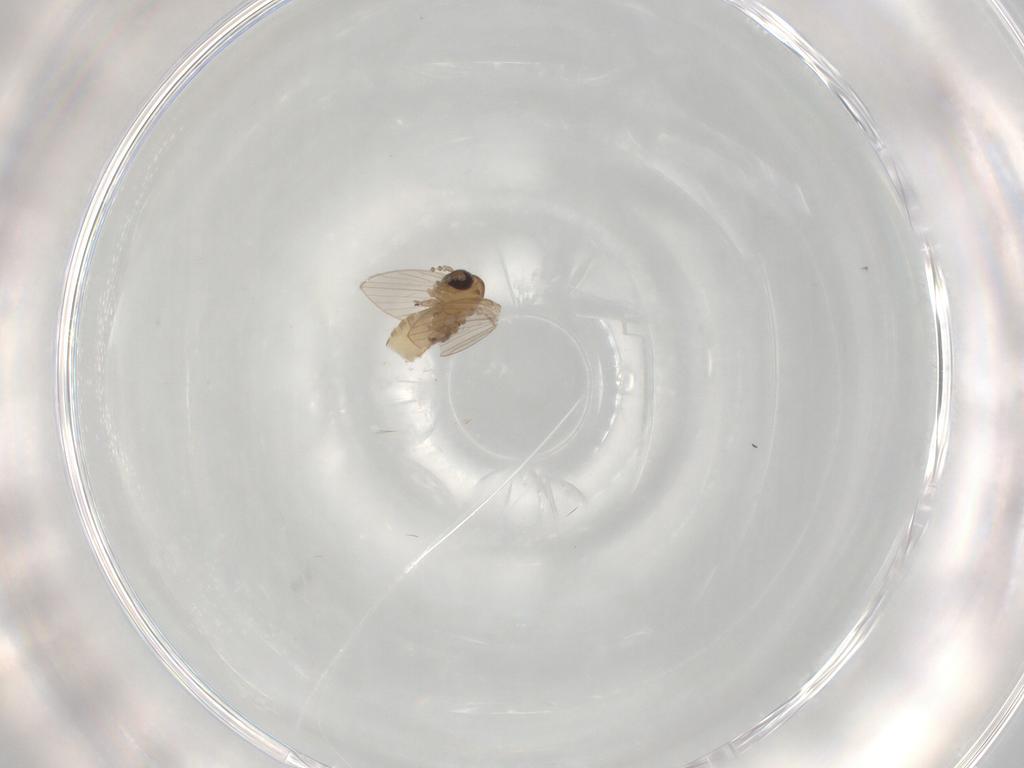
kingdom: Animalia
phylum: Arthropoda
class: Insecta
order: Diptera
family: Psychodidae
